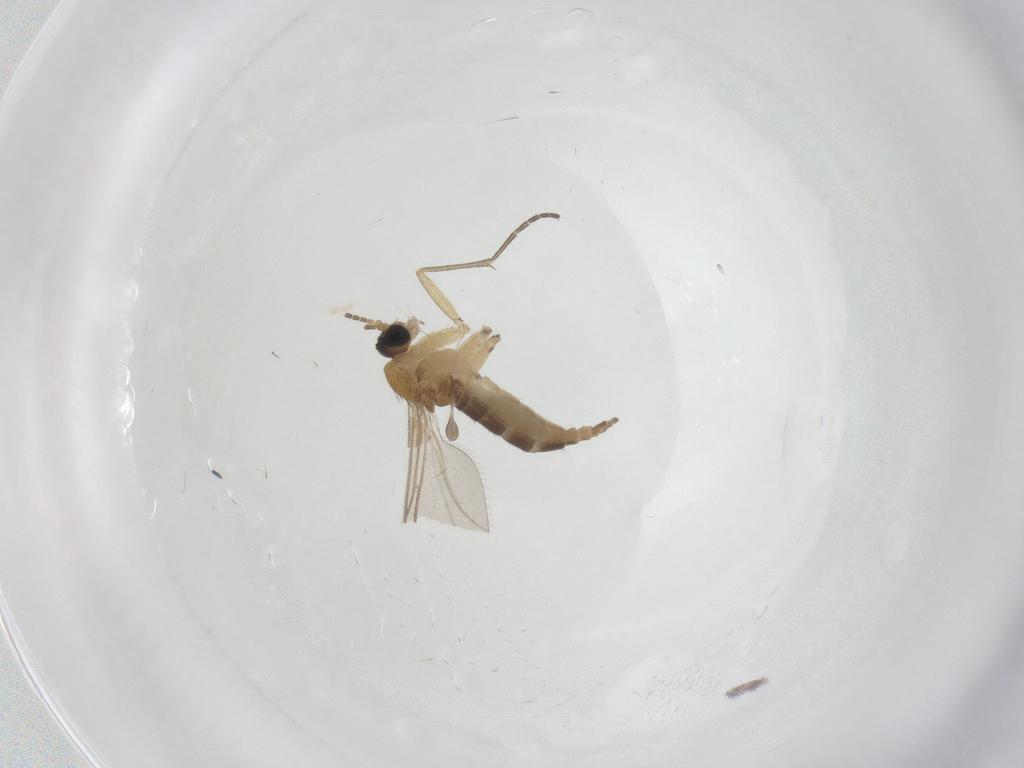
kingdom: Animalia
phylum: Arthropoda
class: Insecta
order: Diptera
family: Sciaridae
